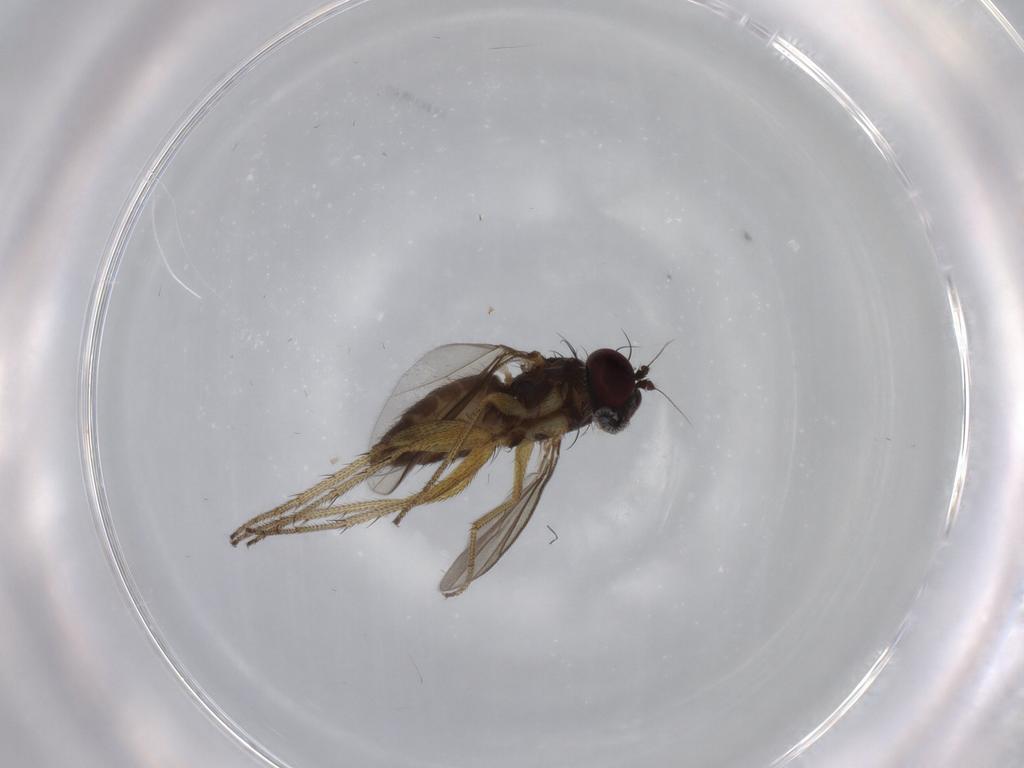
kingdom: Animalia
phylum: Arthropoda
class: Insecta
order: Diptera
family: Dolichopodidae
